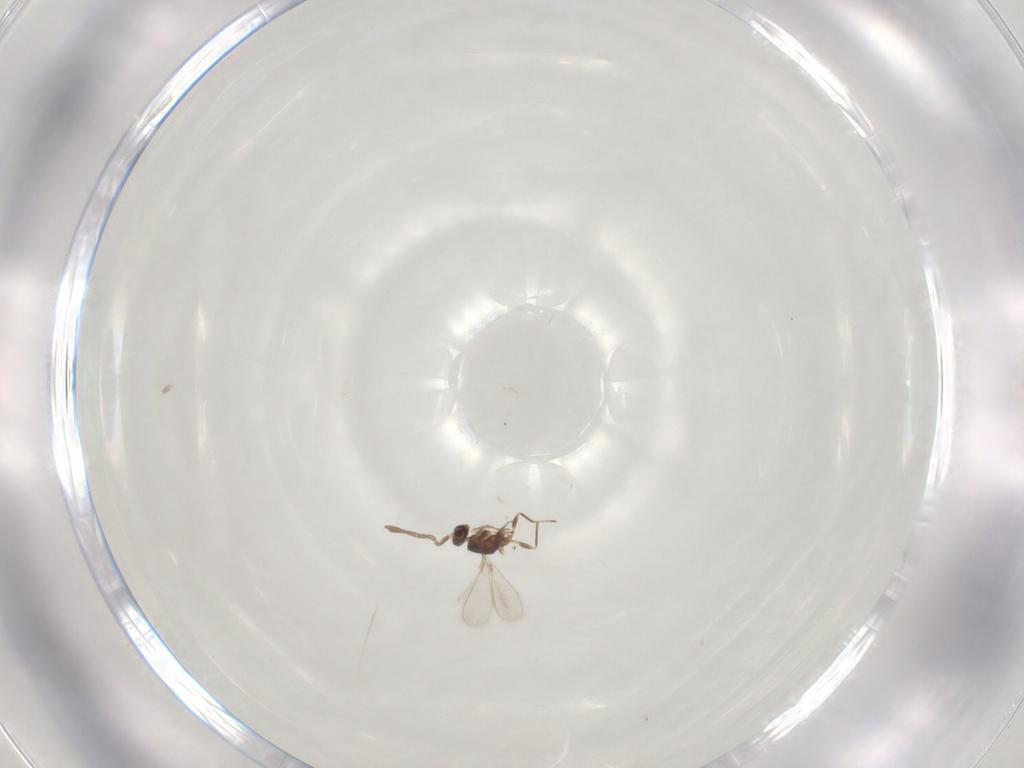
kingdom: Animalia
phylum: Arthropoda
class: Insecta
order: Hymenoptera
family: Mymaridae
